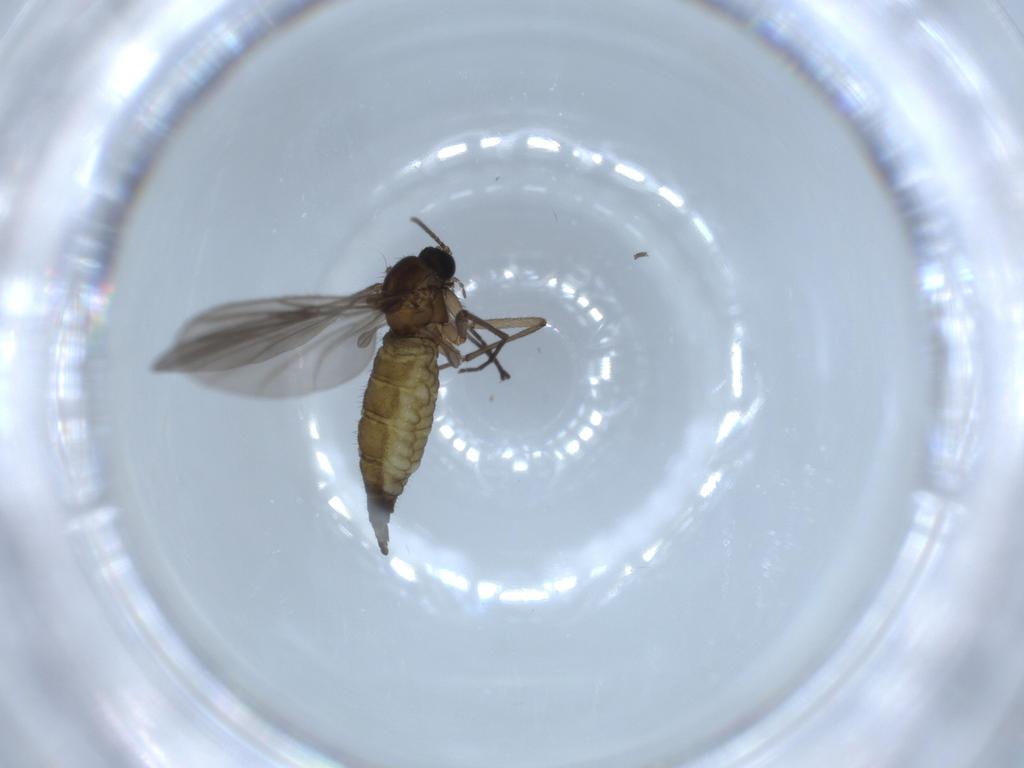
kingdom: Animalia
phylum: Arthropoda
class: Insecta
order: Diptera
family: Sciaridae
